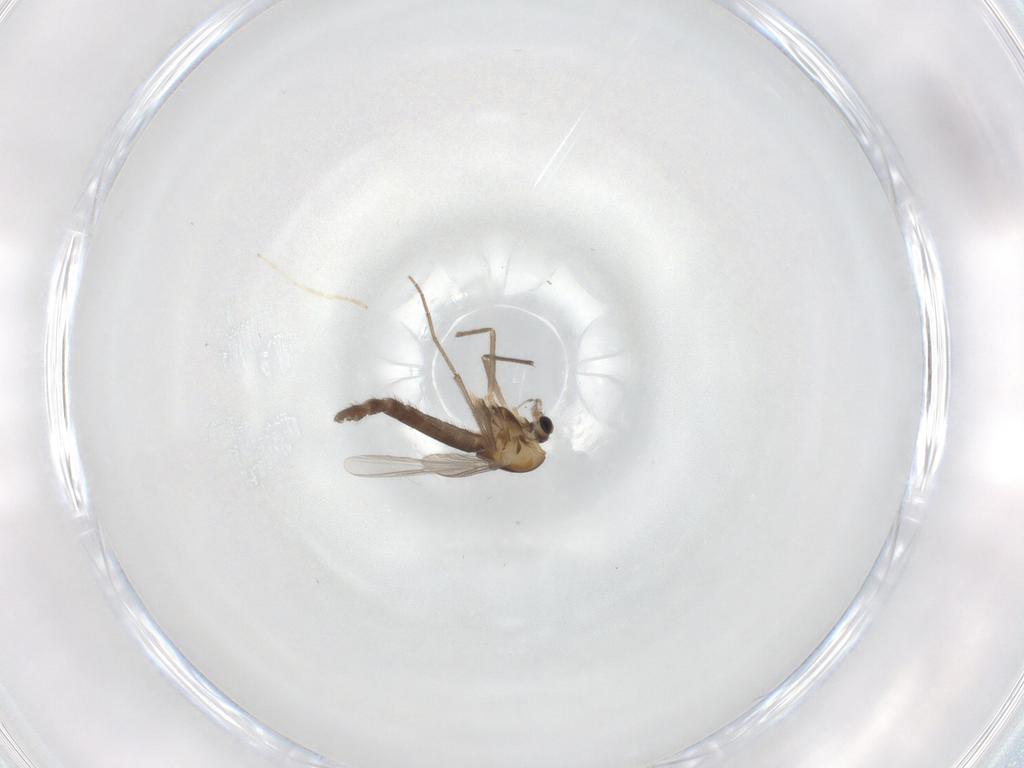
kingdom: Animalia
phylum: Arthropoda
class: Insecta
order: Diptera
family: Chironomidae
